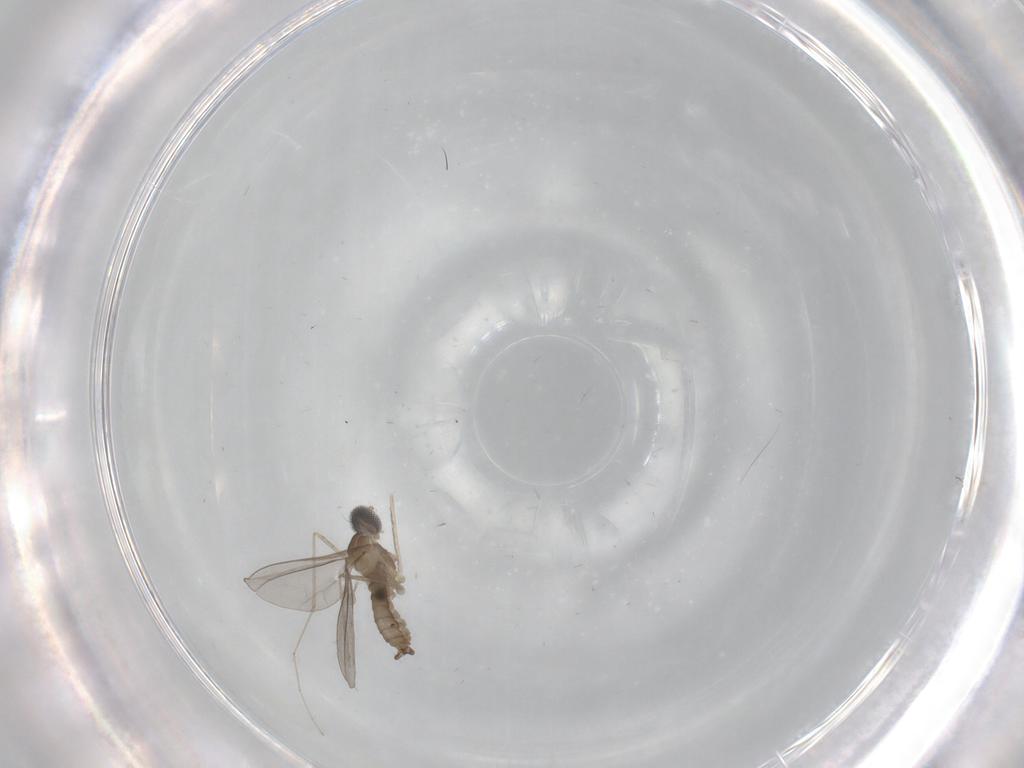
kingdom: Animalia
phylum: Arthropoda
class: Insecta
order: Diptera
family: Cecidomyiidae
